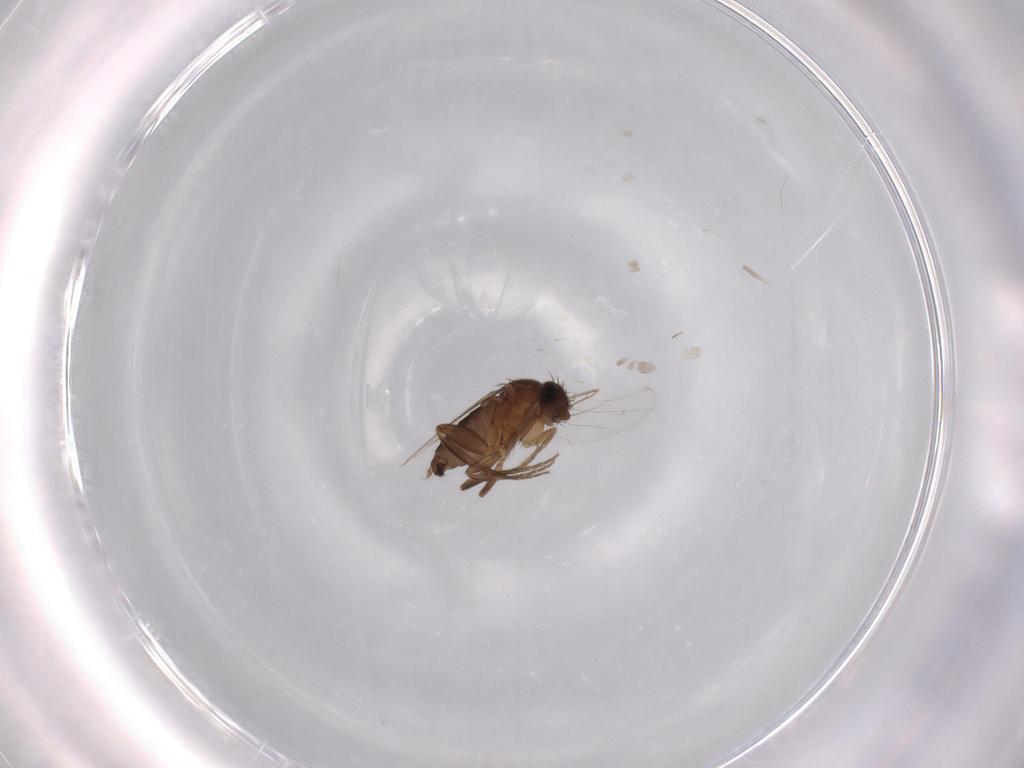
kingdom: Animalia
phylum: Arthropoda
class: Insecta
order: Diptera
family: Phoridae
